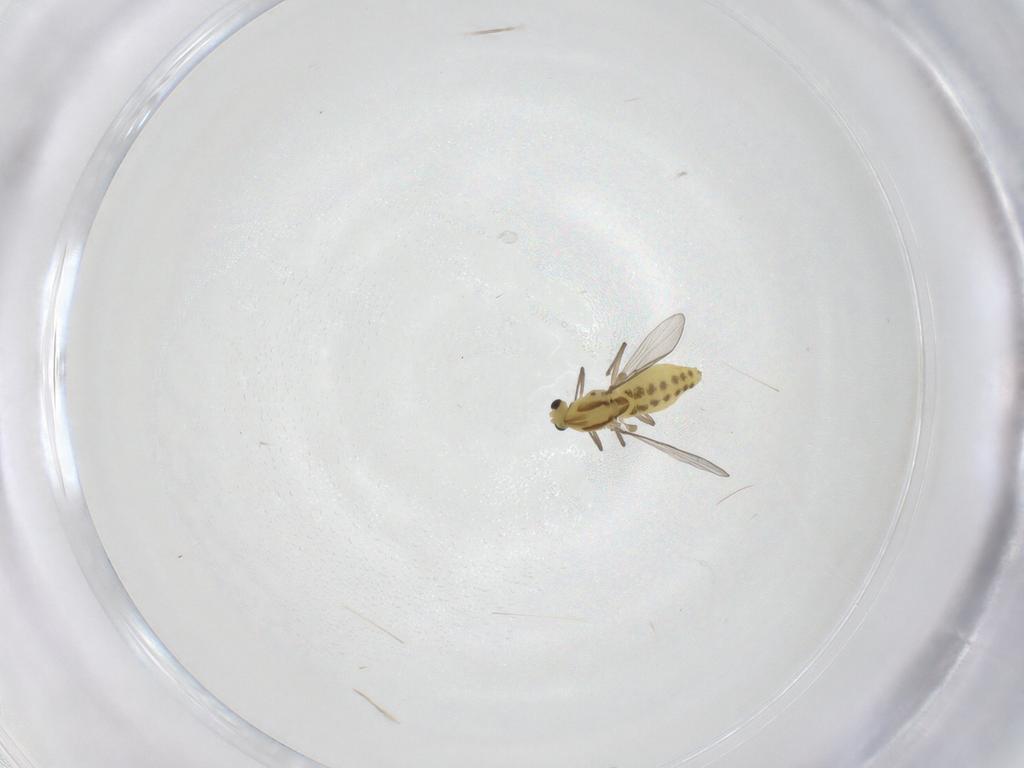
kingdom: Animalia
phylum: Arthropoda
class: Insecta
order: Diptera
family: Chironomidae
